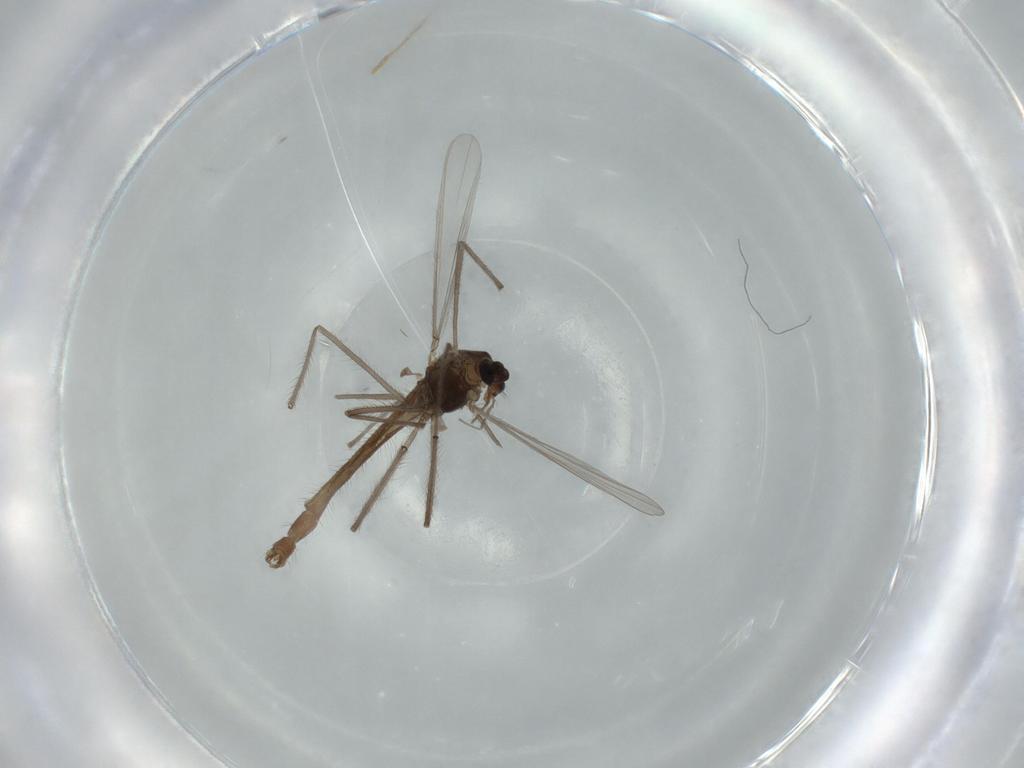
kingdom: Animalia
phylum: Arthropoda
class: Insecta
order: Diptera
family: Chironomidae
